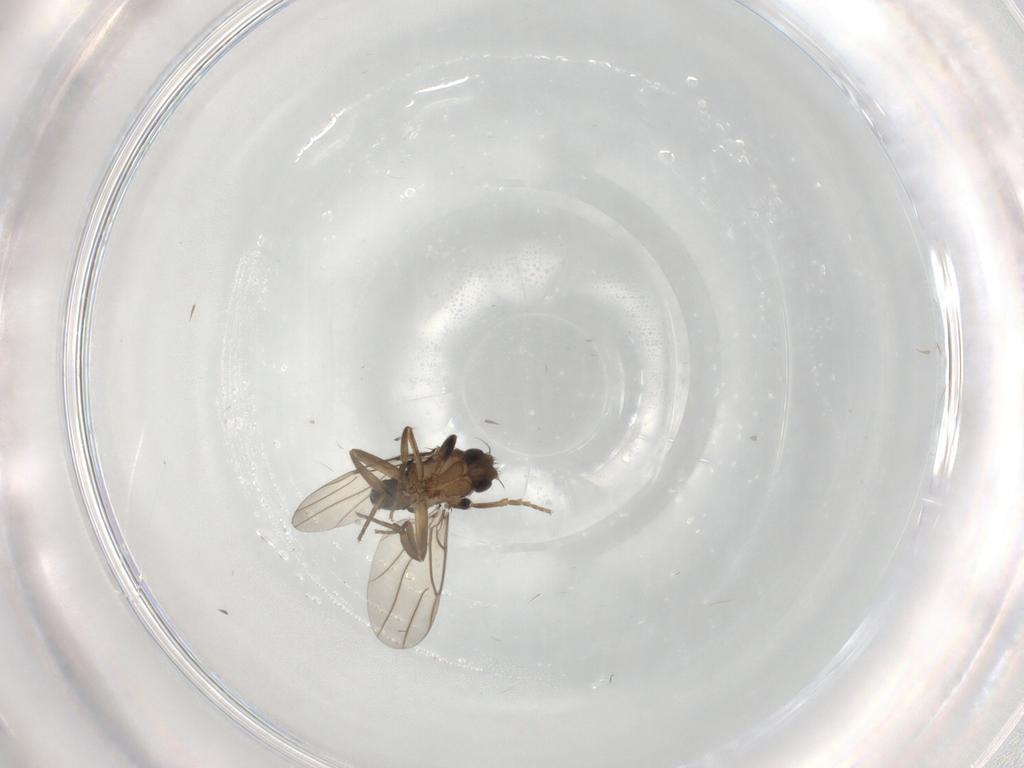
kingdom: Animalia
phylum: Arthropoda
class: Insecta
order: Diptera
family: Phoridae
